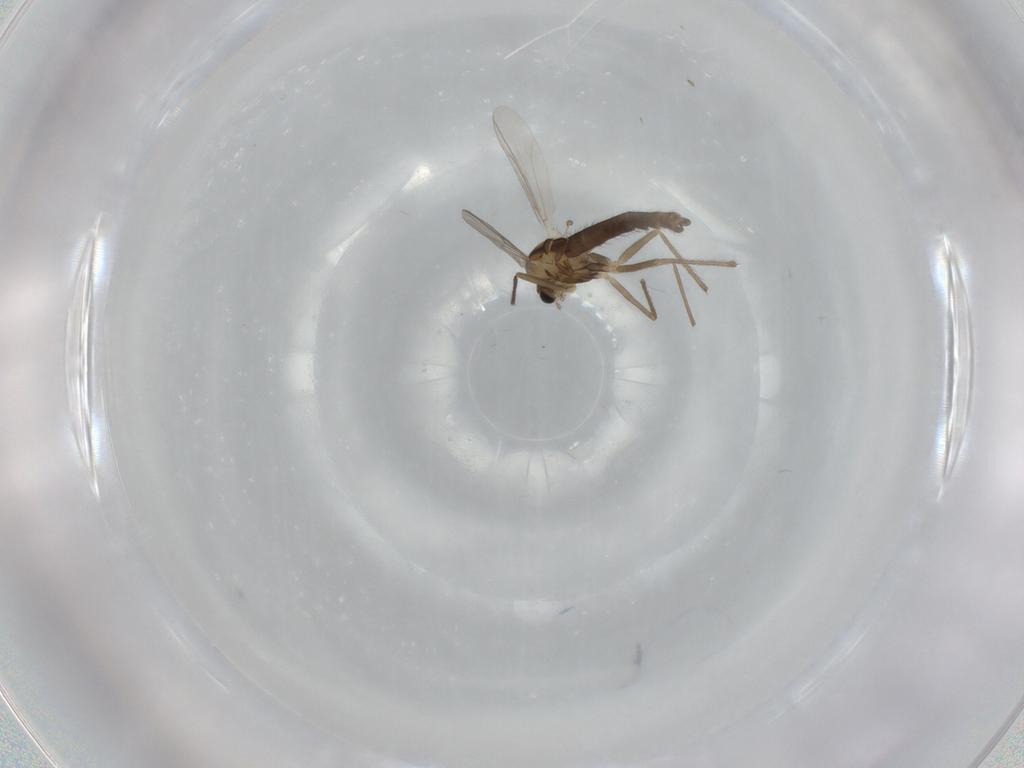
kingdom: Animalia
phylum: Arthropoda
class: Insecta
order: Diptera
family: Chironomidae
